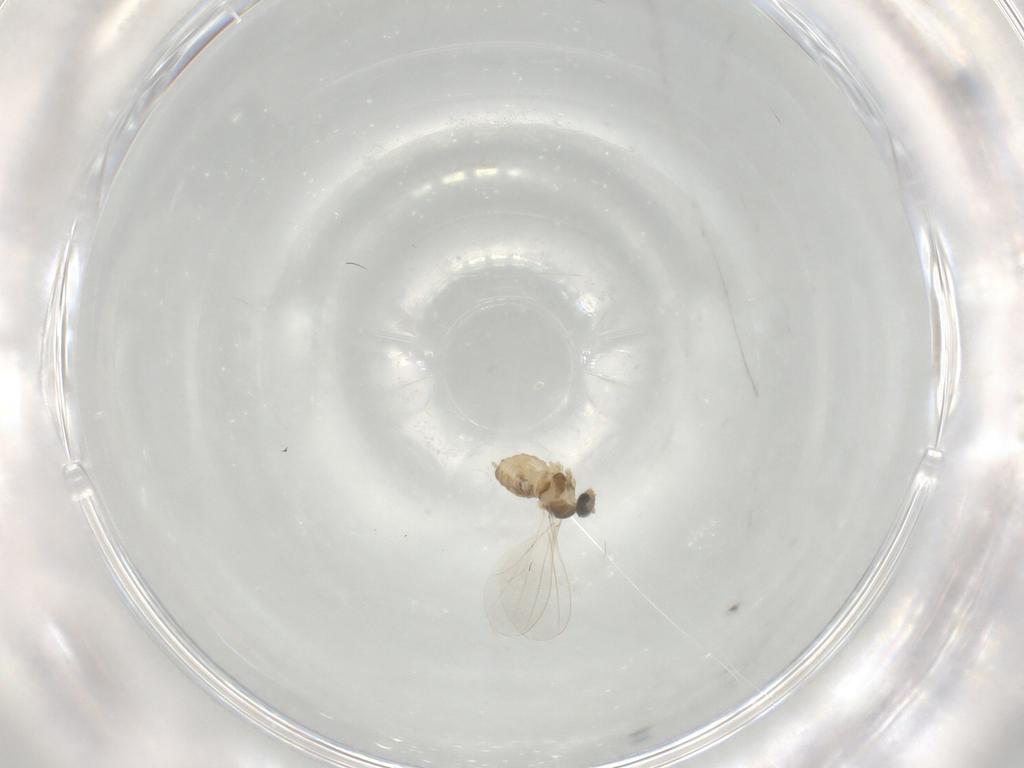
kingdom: Animalia
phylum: Arthropoda
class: Insecta
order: Diptera
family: Cecidomyiidae
